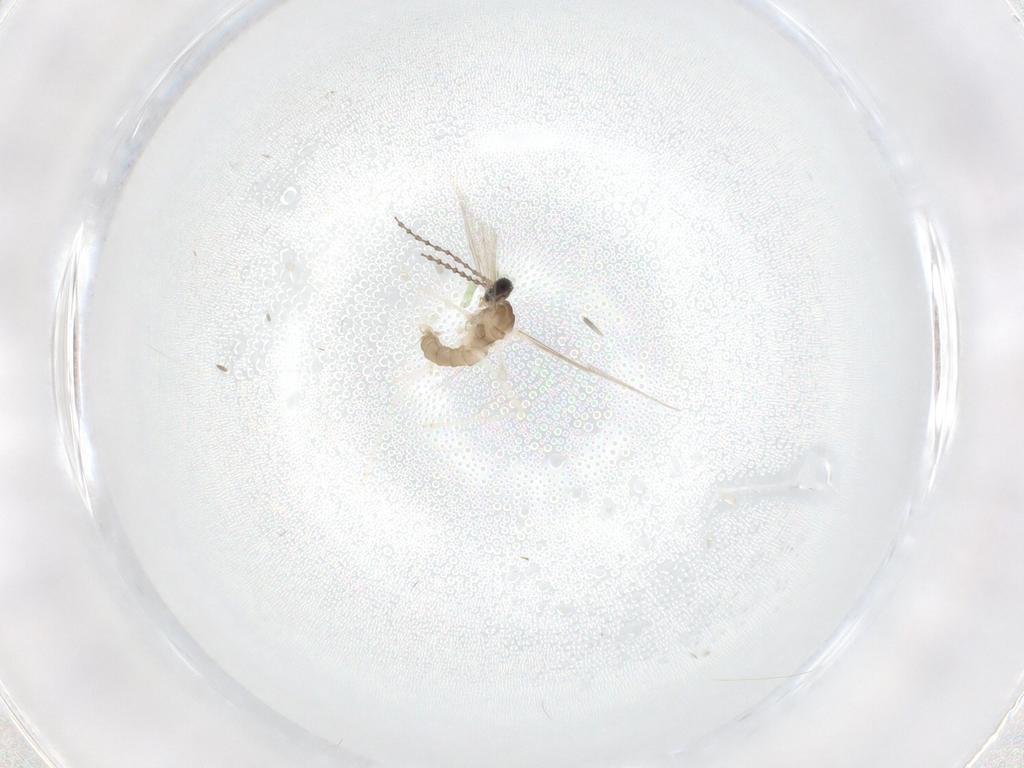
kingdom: Animalia
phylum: Arthropoda
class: Insecta
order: Diptera
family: Cecidomyiidae
